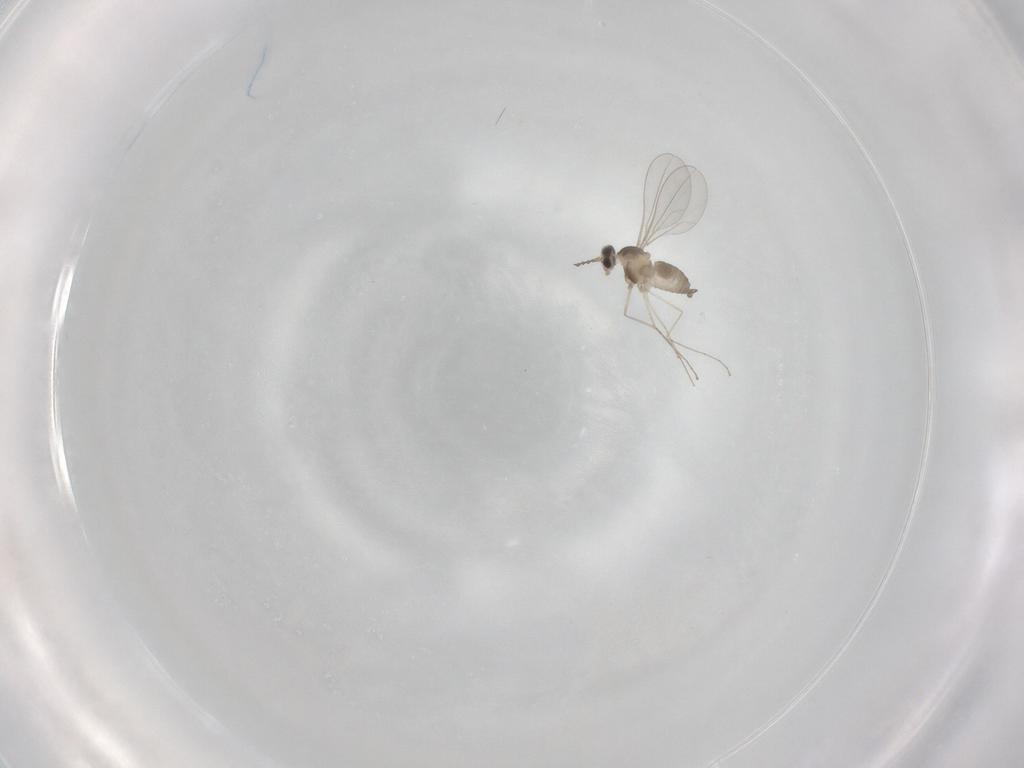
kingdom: Animalia
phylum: Arthropoda
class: Insecta
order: Diptera
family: Cecidomyiidae
